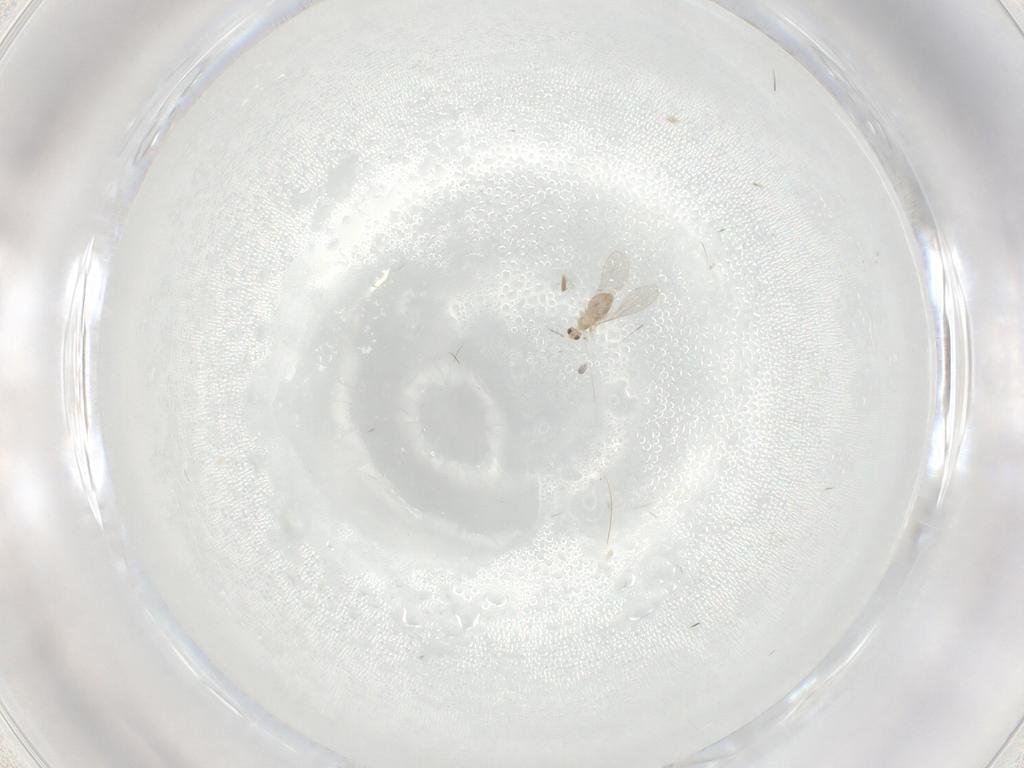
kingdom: Animalia
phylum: Arthropoda
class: Insecta
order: Diptera
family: Cecidomyiidae
